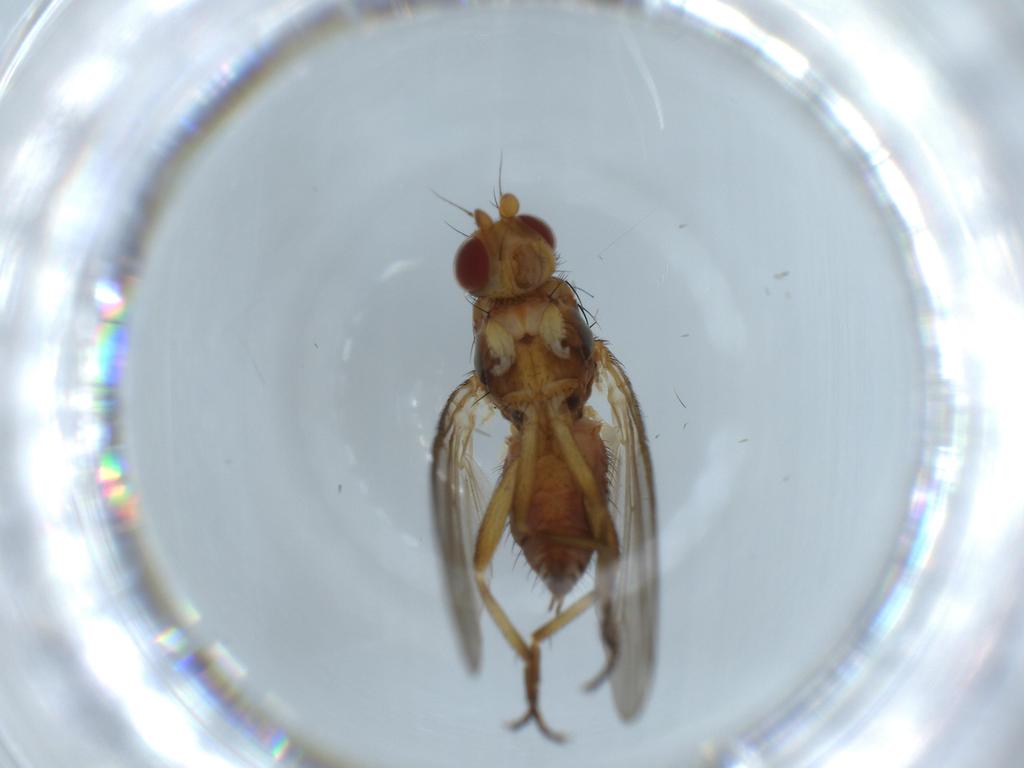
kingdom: Animalia
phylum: Arthropoda
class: Insecta
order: Diptera
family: Heleomyzidae
